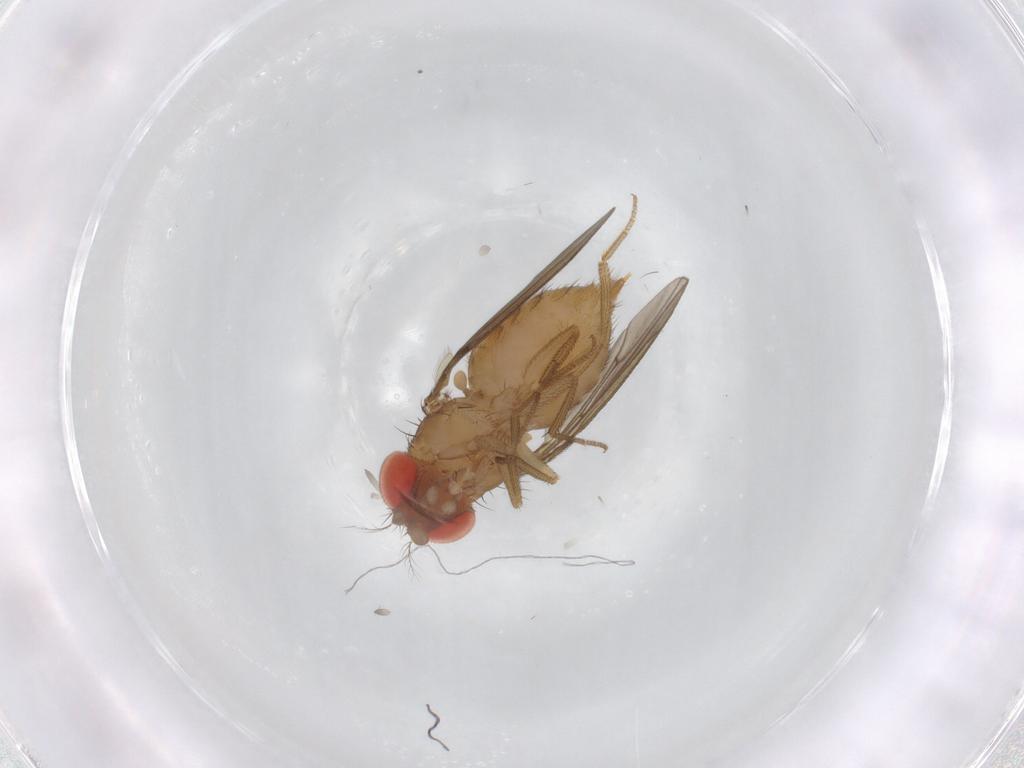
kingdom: Animalia
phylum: Arthropoda
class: Insecta
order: Diptera
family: Drosophilidae
